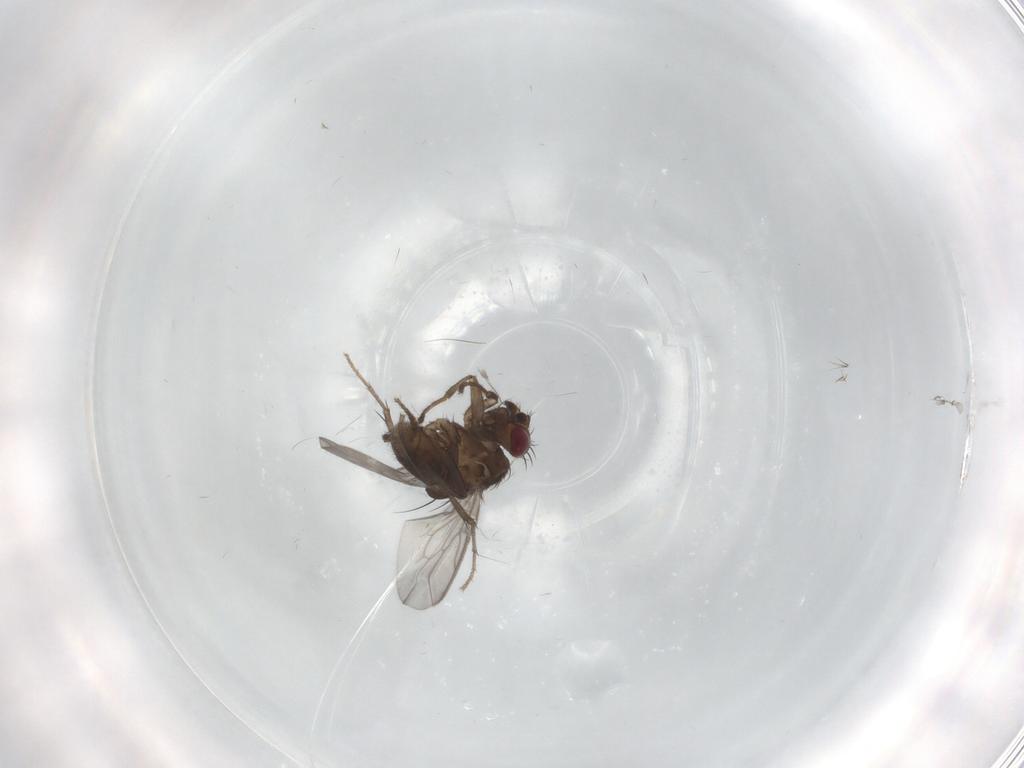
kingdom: Animalia
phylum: Arthropoda
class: Insecta
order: Diptera
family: Sphaeroceridae
